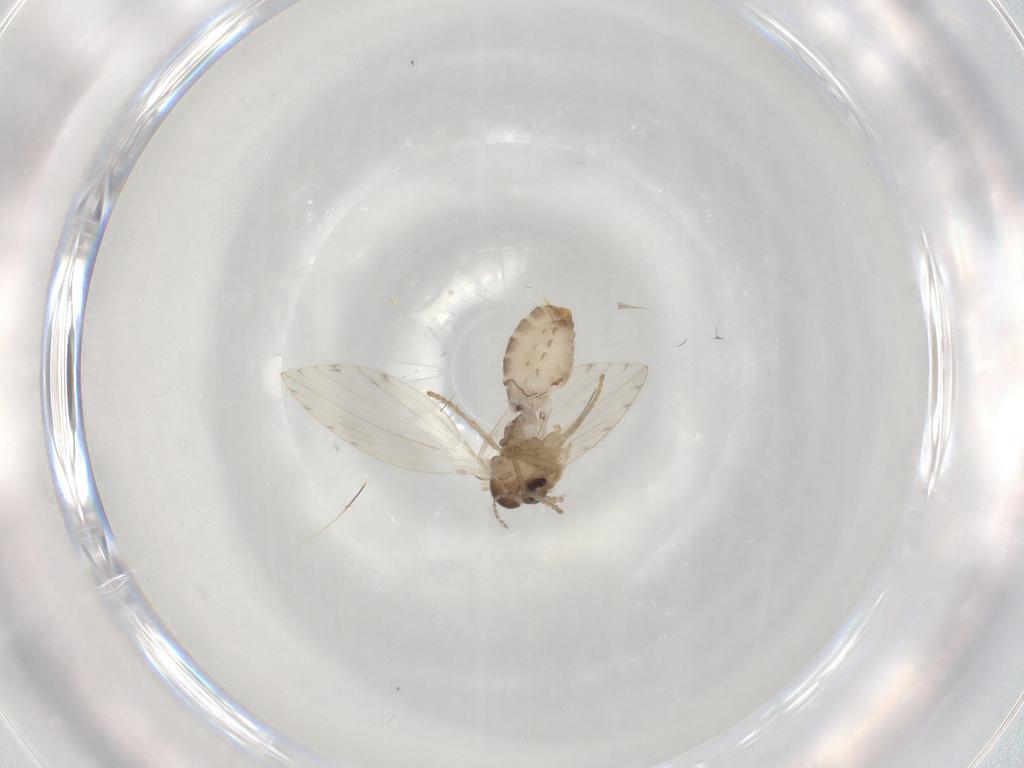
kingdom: Animalia
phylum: Arthropoda
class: Insecta
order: Diptera
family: Psychodidae
